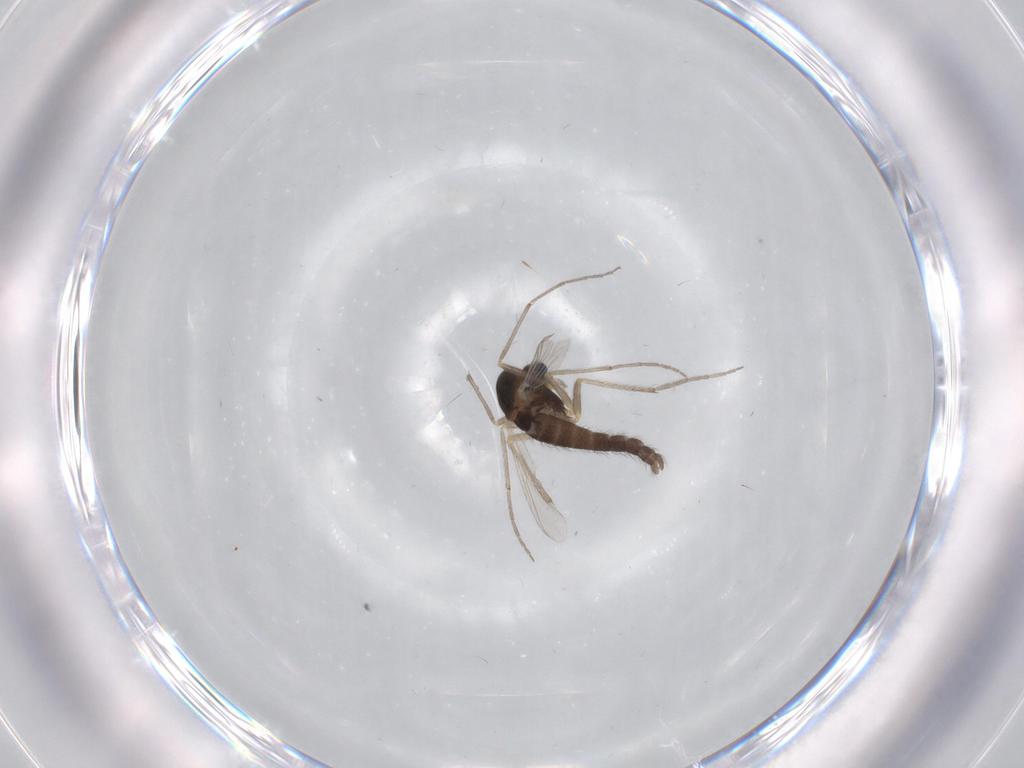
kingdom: Animalia
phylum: Arthropoda
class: Insecta
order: Diptera
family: Chironomidae
